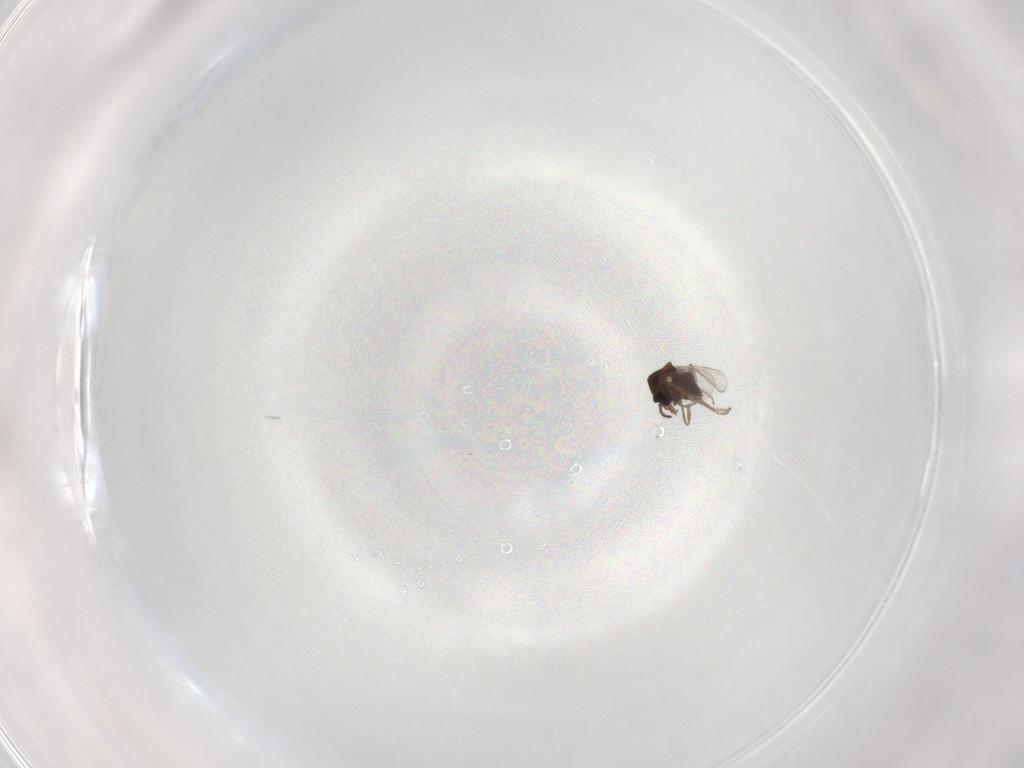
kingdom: Animalia
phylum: Arthropoda
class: Insecta
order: Diptera
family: Ceratopogonidae
